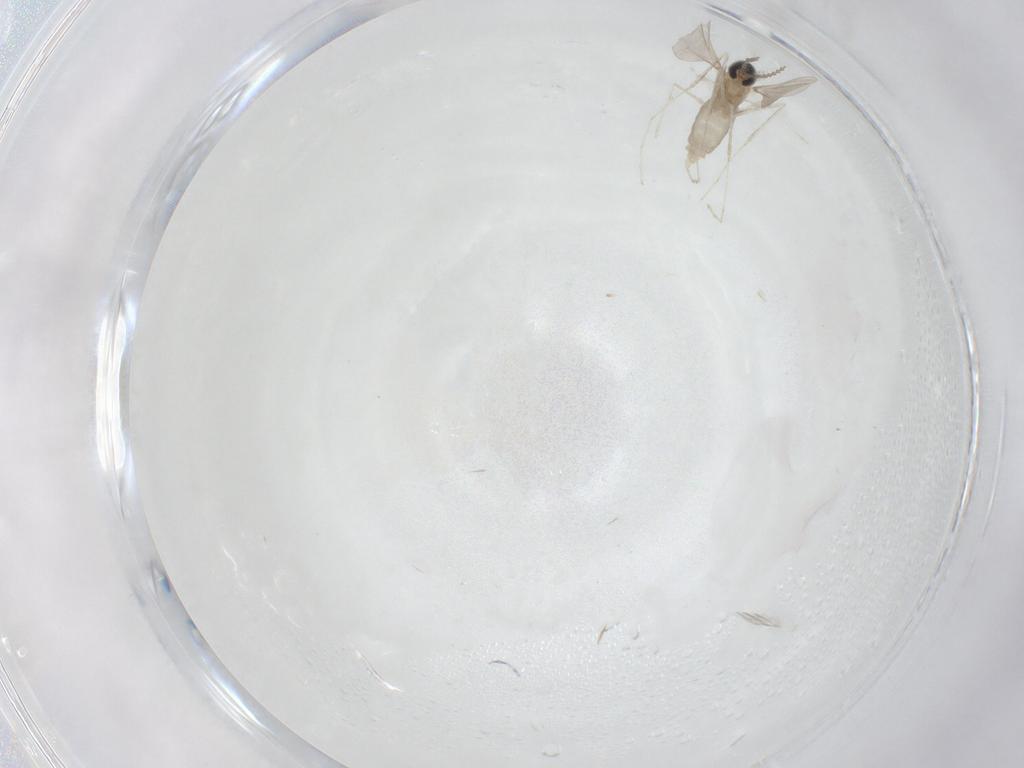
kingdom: Animalia
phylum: Arthropoda
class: Insecta
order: Diptera
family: Cecidomyiidae
